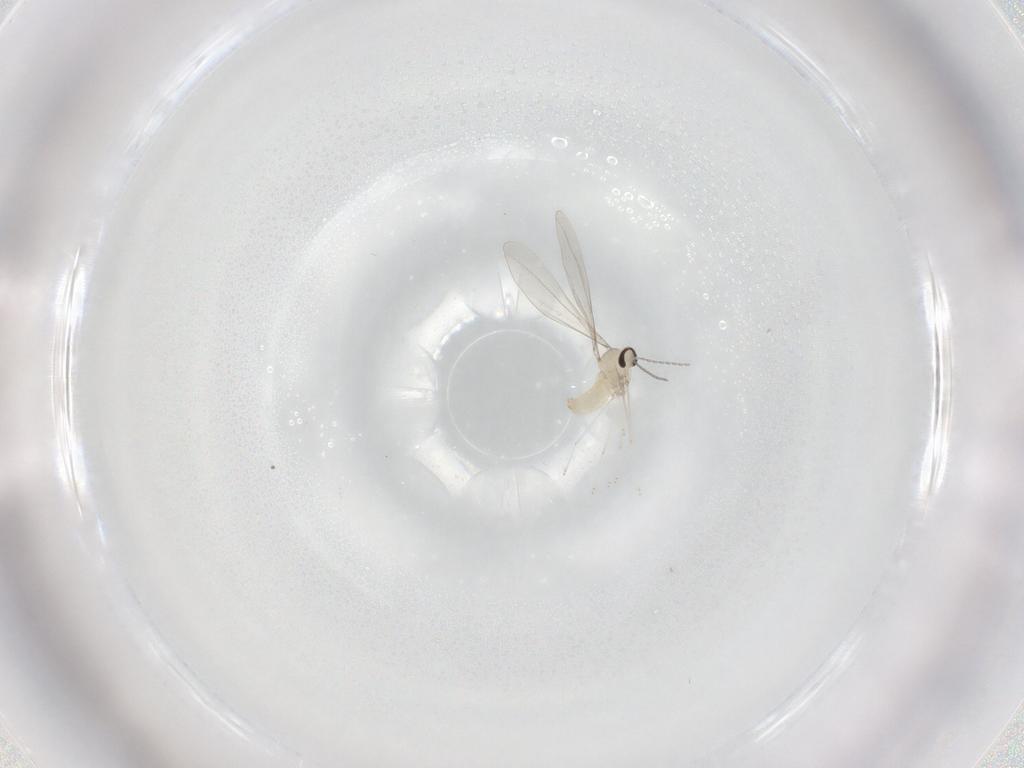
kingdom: Animalia
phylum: Arthropoda
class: Insecta
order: Diptera
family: Cecidomyiidae
